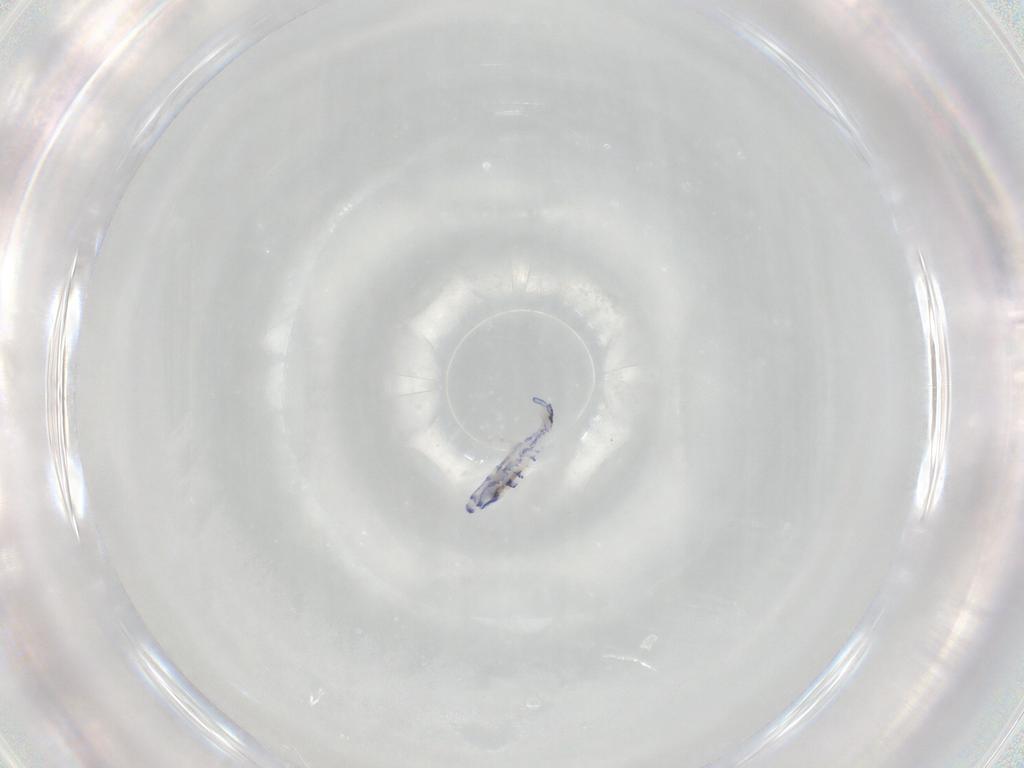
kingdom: Animalia
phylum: Arthropoda
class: Collembola
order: Entomobryomorpha
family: Entomobryidae
